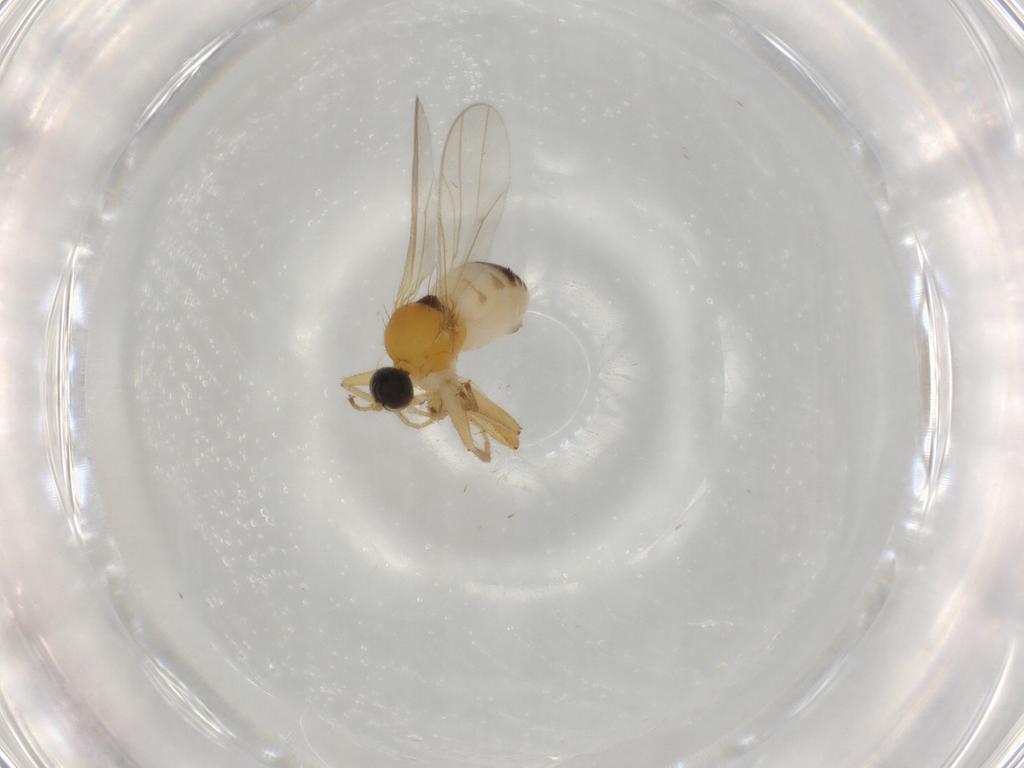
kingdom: Animalia
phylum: Arthropoda
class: Insecta
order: Diptera
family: Hybotidae
